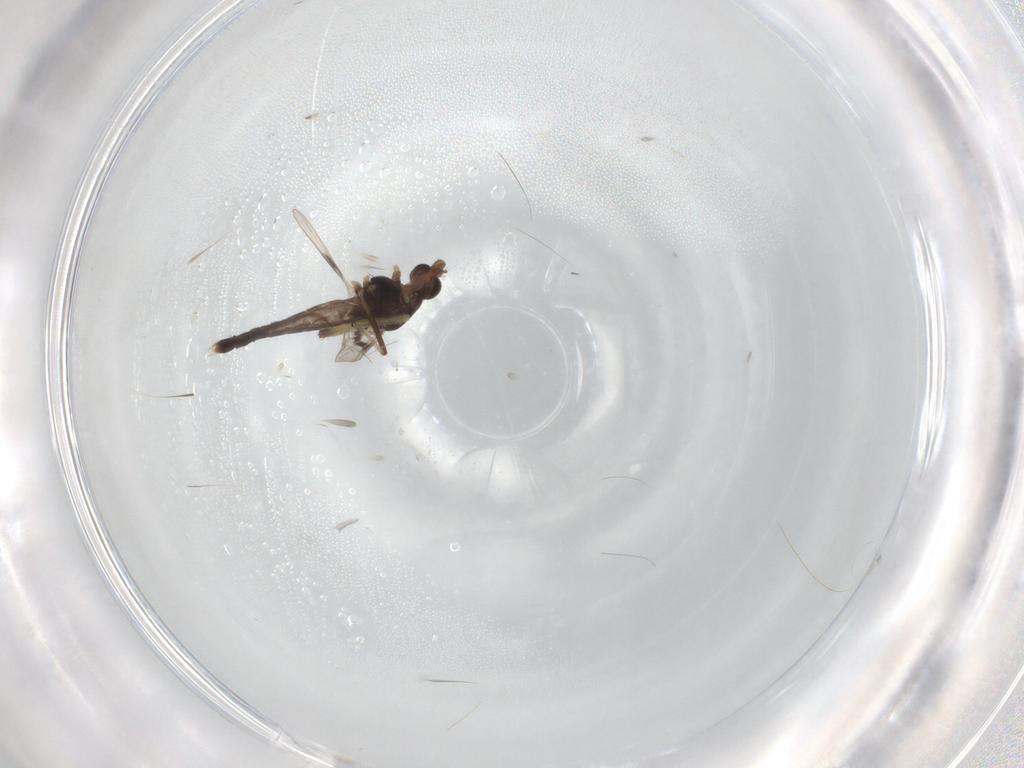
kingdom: Animalia
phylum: Arthropoda
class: Insecta
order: Diptera
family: Chironomidae
